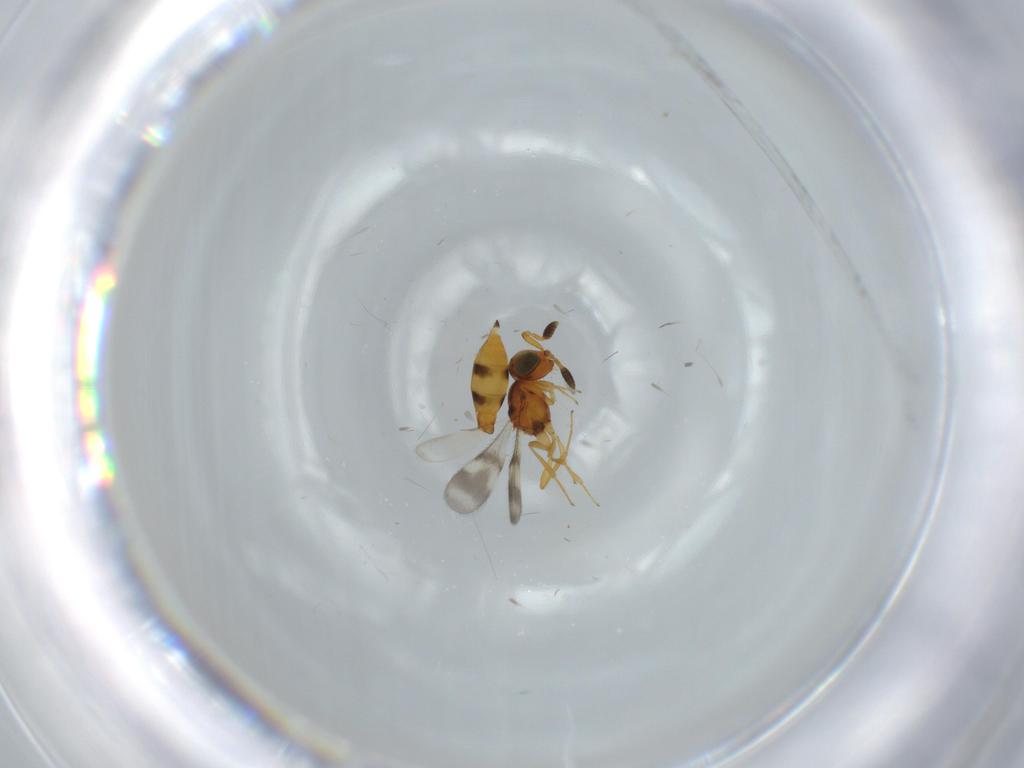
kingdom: Animalia
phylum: Arthropoda
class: Insecta
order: Hymenoptera
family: Scelionidae
